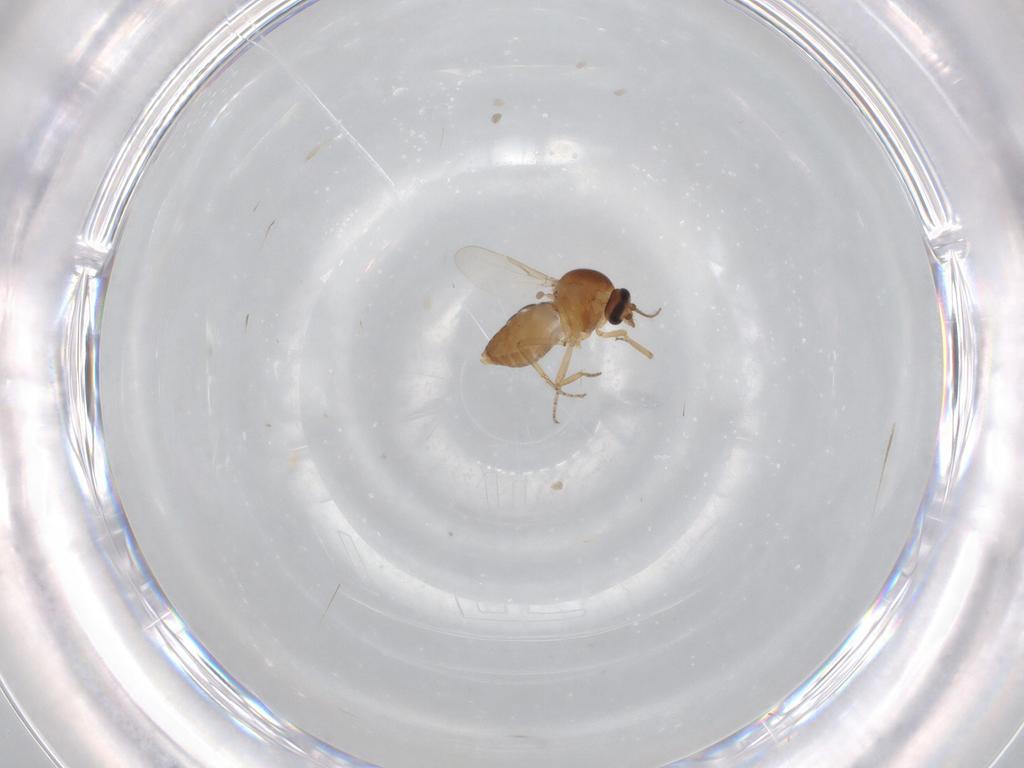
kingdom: Animalia
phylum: Arthropoda
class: Insecta
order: Diptera
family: Ceratopogonidae
